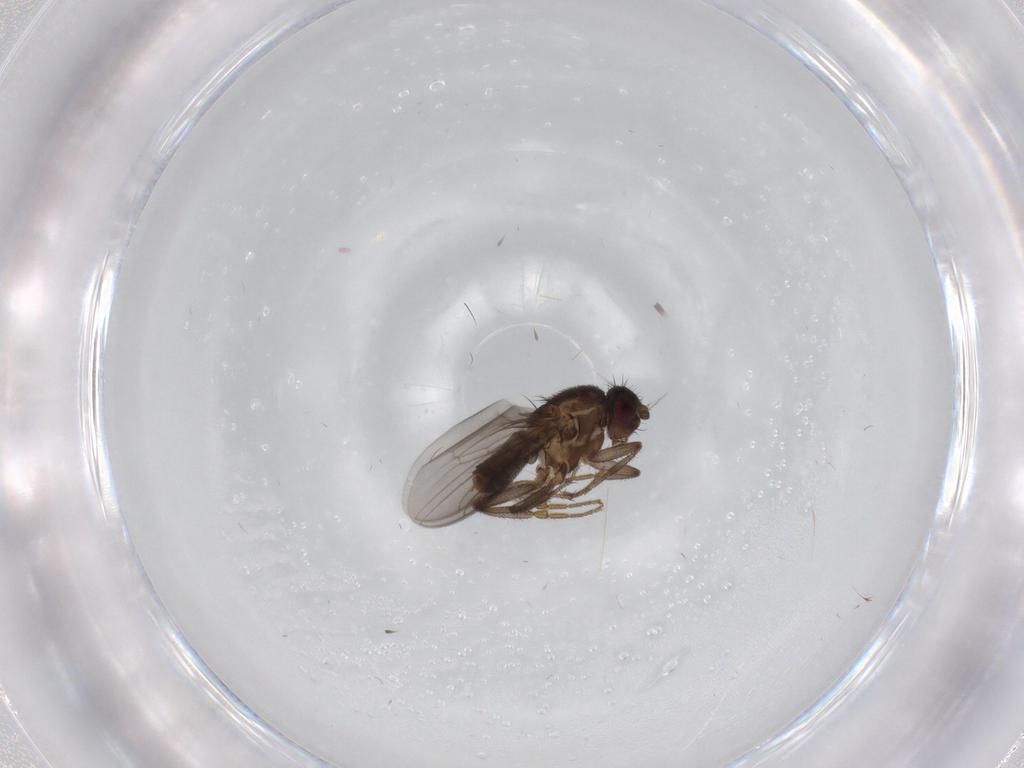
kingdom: Animalia
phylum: Arthropoda
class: Insecta
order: Diptera
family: Sphaeroceridae
